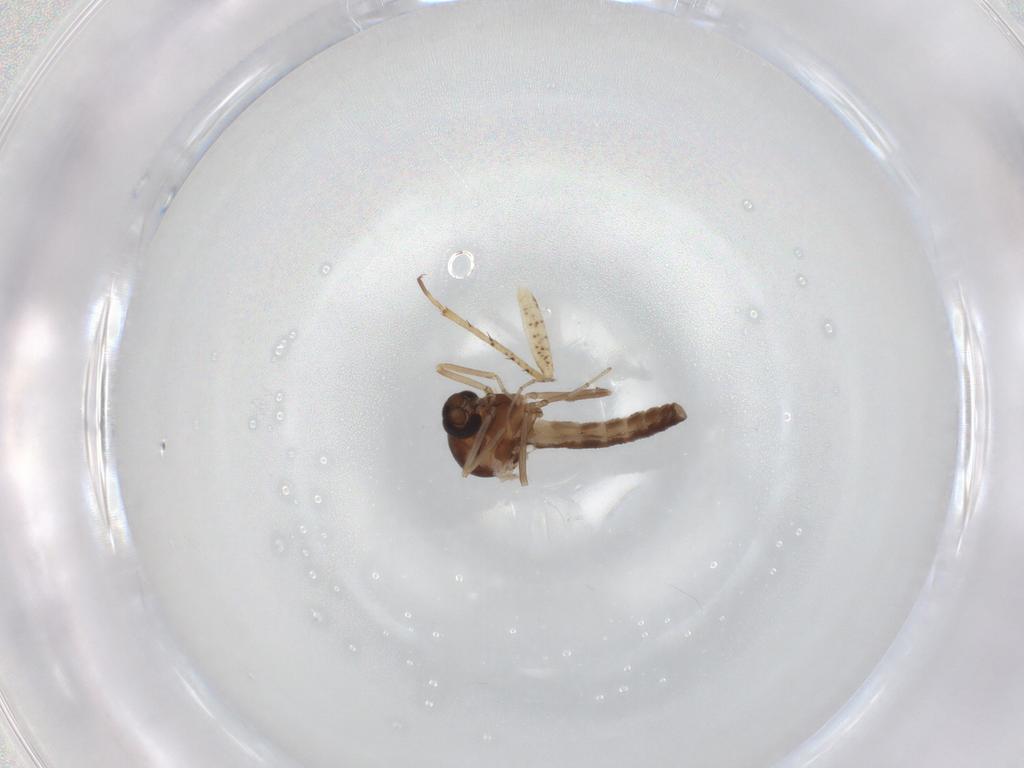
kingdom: Animalia
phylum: Arthropoda
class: Insecta
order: Diptera
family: Ceratopogonidae
